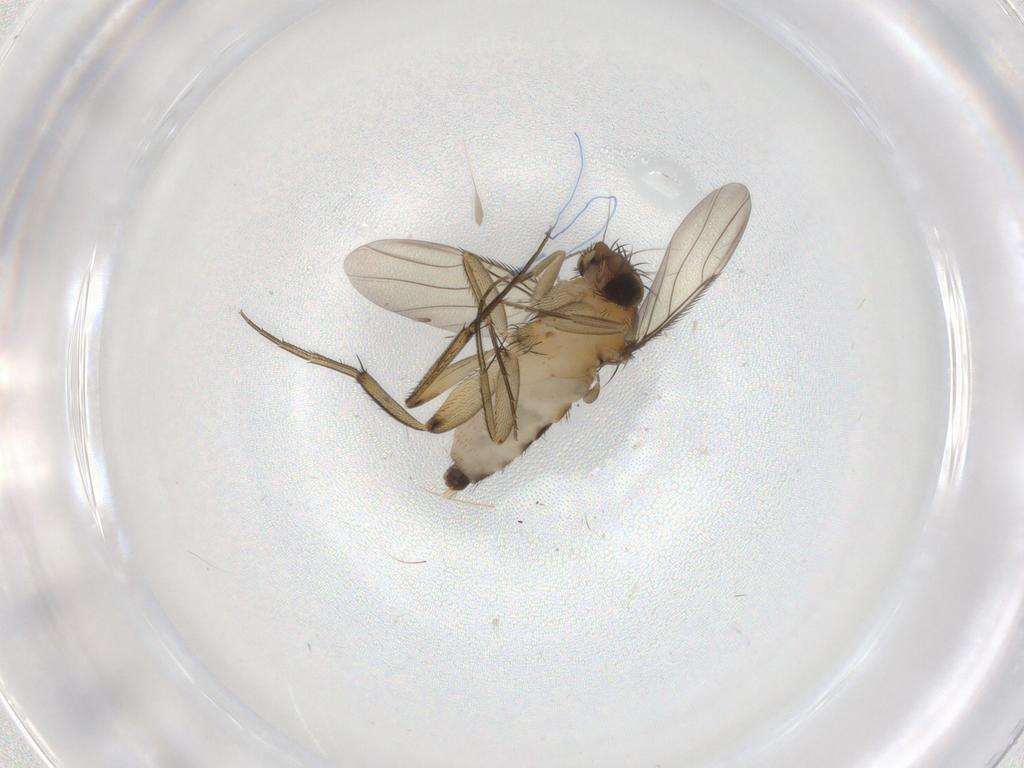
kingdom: Animalia
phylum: Arthropoda
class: Insecta
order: Diptera
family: Phoridae
